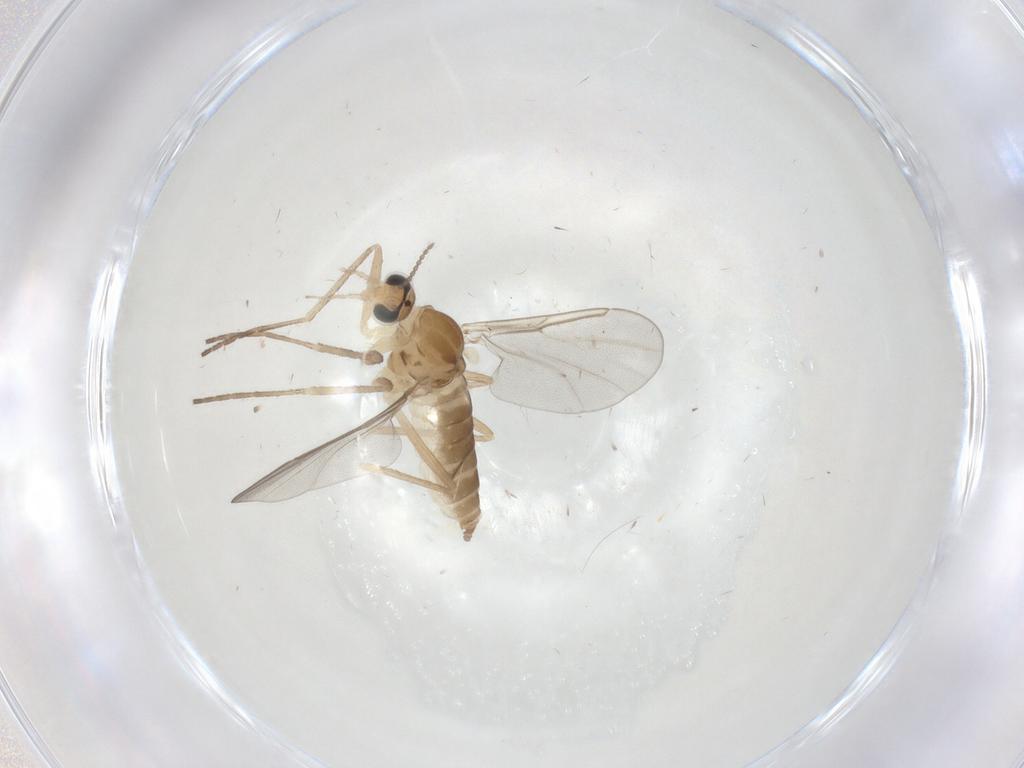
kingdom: Animalia
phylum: Arthropoda
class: Insecta
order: Diptera
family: Cecidomyiidae
